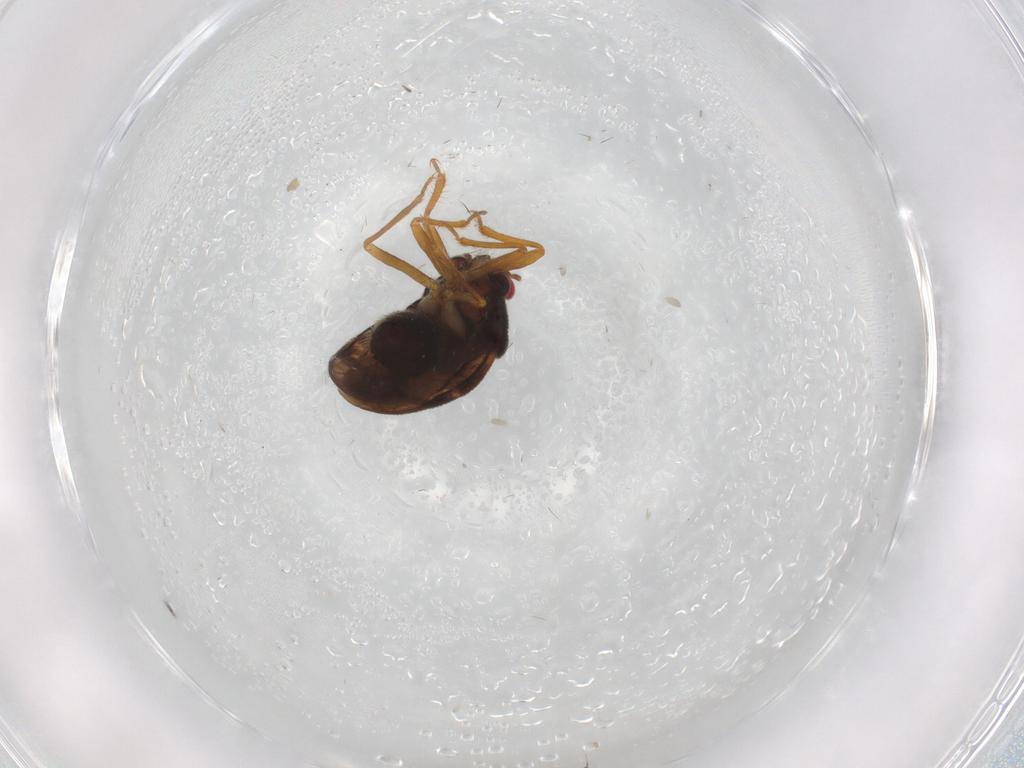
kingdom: Animalia
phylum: Arthropoda
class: Insecta
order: Hemiptera
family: Schizopteridae
